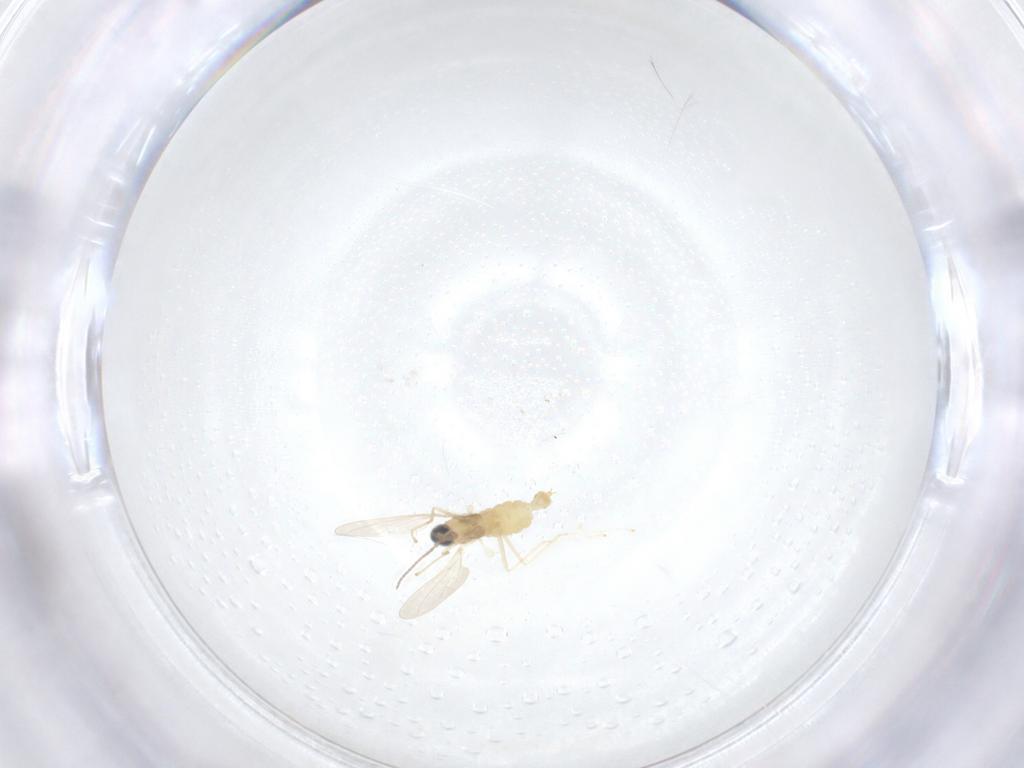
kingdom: Animalia
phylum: Arthropoda
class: Insecta
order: Diptera
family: Cecidomyiidae
